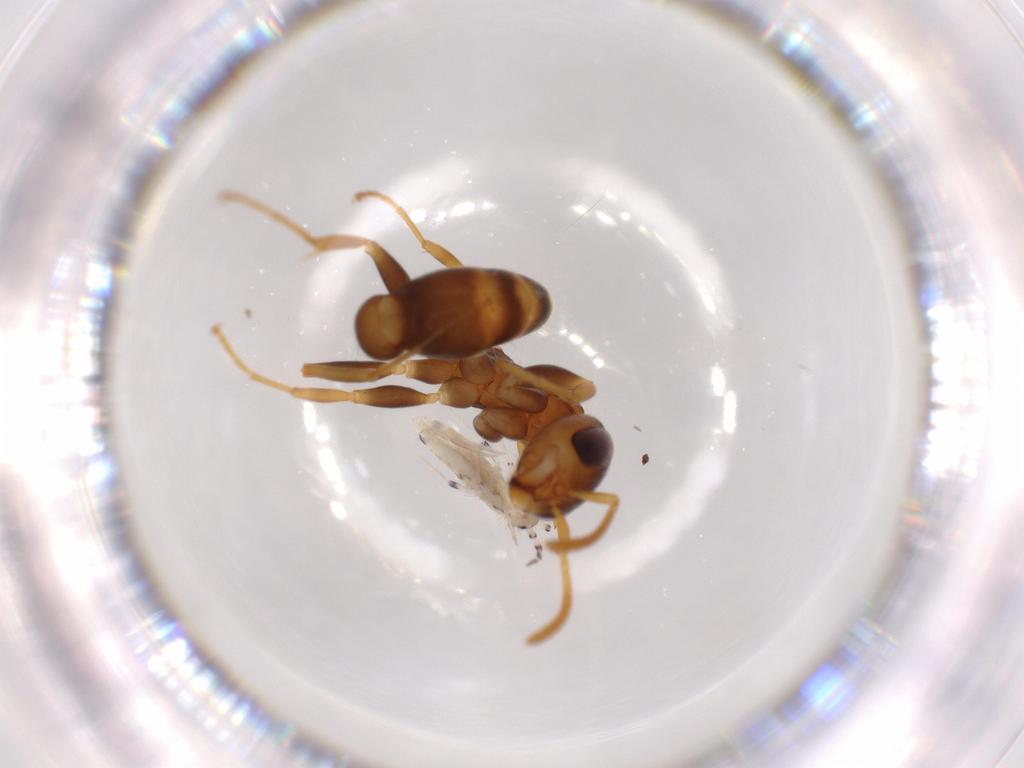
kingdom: Animalia
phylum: Arthropoda
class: Insecta
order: Hymenoptera
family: Formicidae
